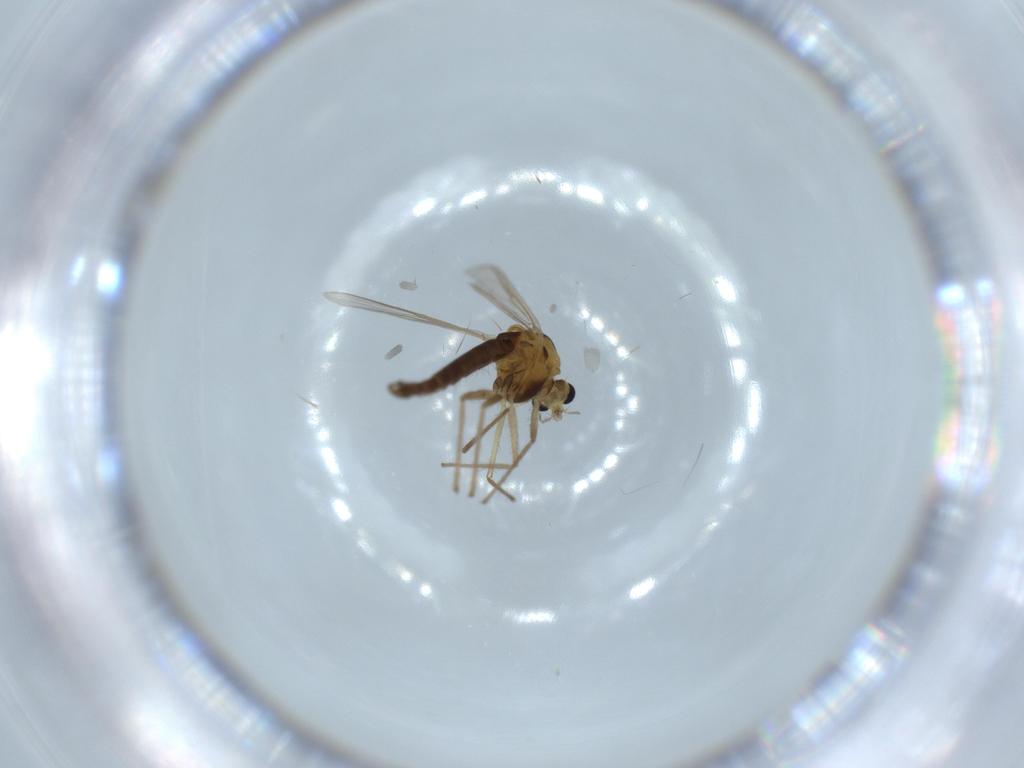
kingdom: Animalia
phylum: Arthropoda
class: Insecta
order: Diptera
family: Chironomidae
